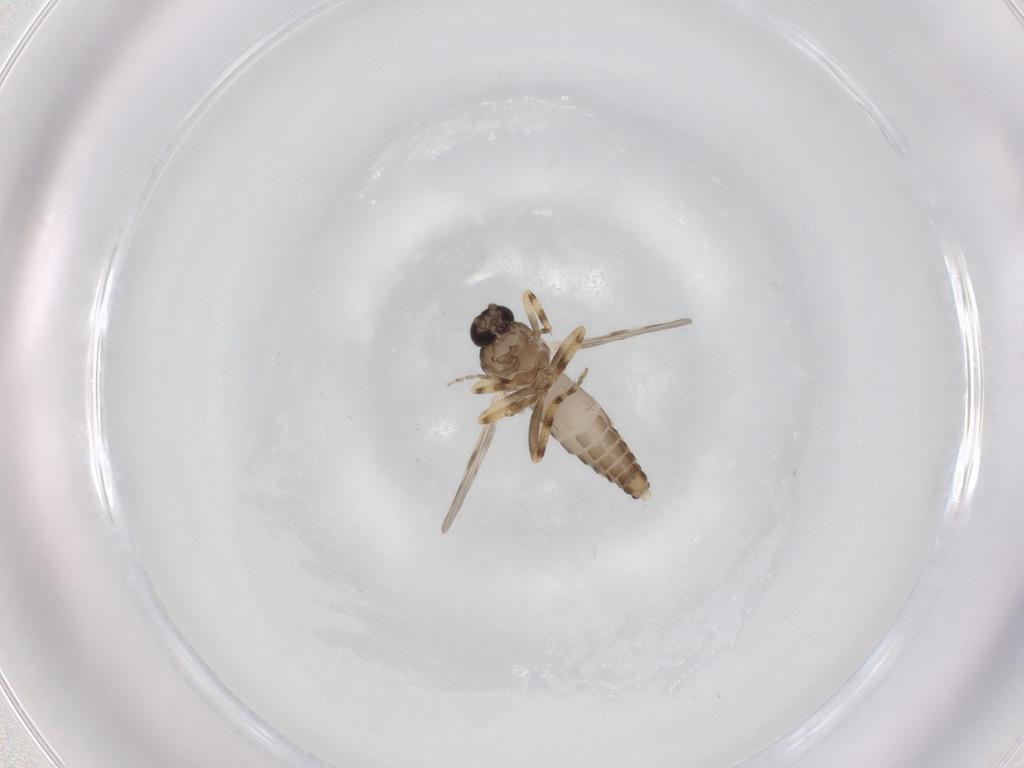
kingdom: Animalia
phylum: Arthropoda
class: Insecta
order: Diptera
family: Ceratopogonidae
